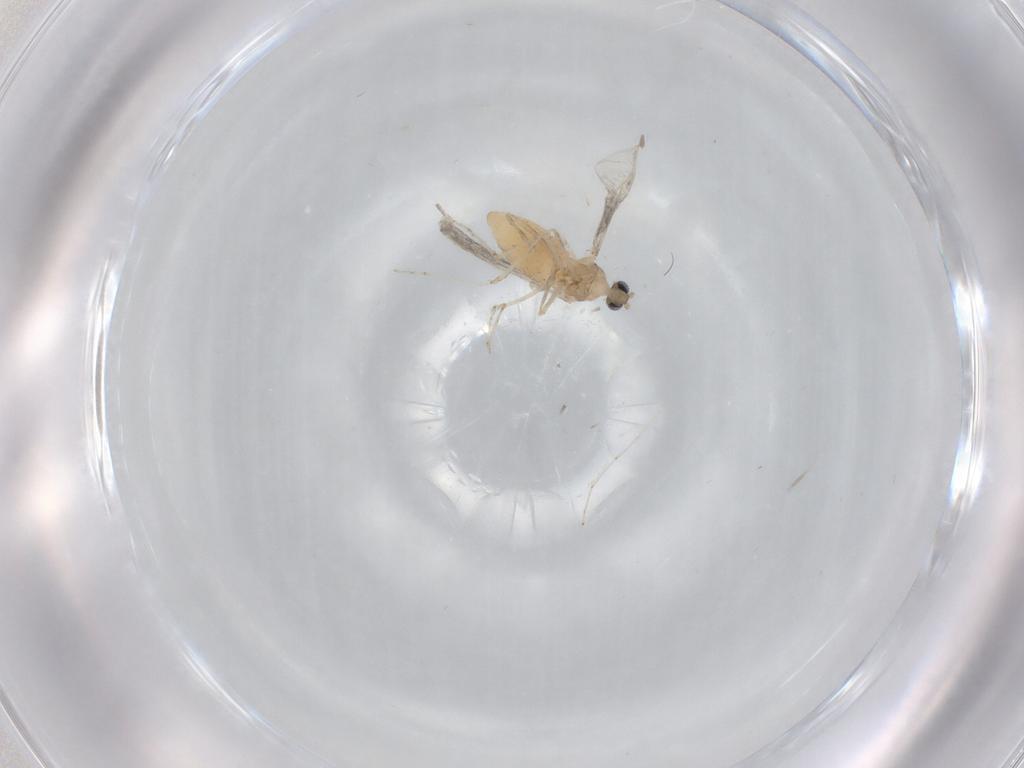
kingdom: Animalia
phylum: Arthropoda
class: Insecta
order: Diptera
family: Cecidomyiidae
